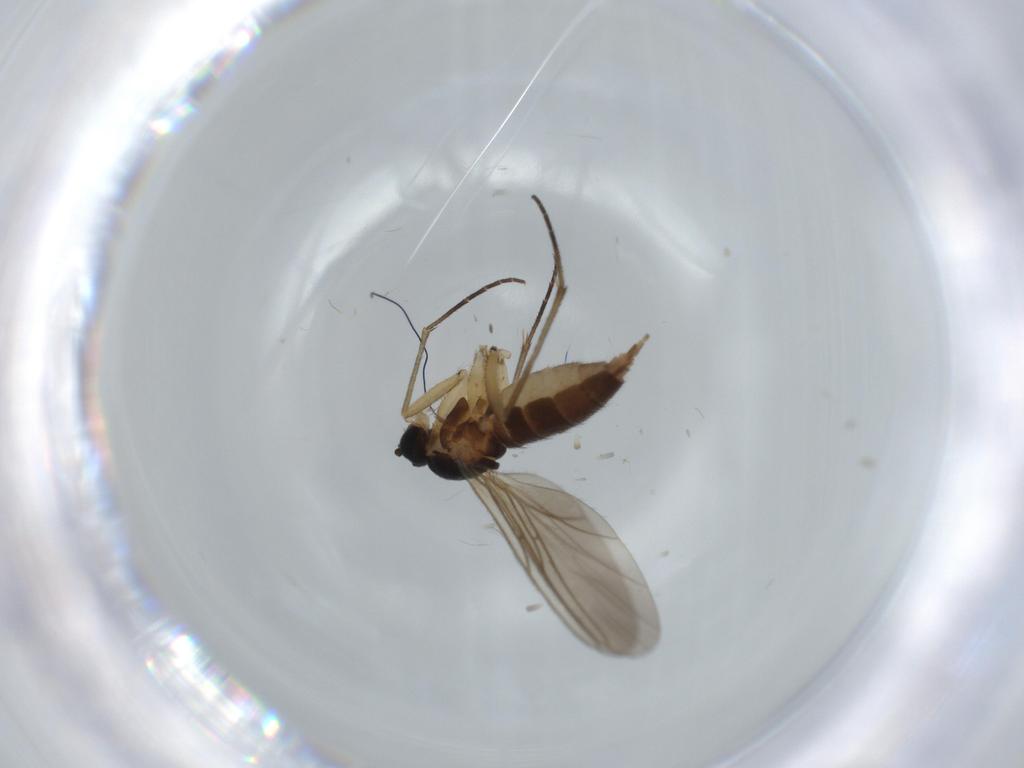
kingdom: Animalia
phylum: Arthropoda
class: Insecta
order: Diptera
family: Sciaridae
